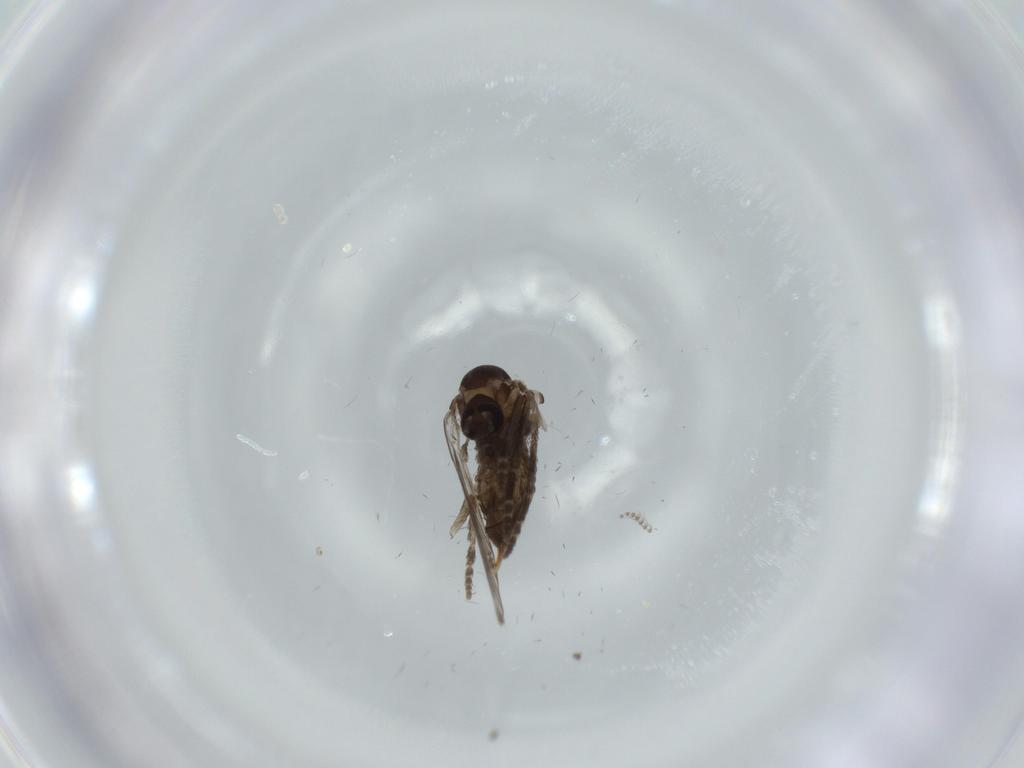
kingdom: Animalia
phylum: Arthropoda
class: Insecta
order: Diptera
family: Psychodidae
